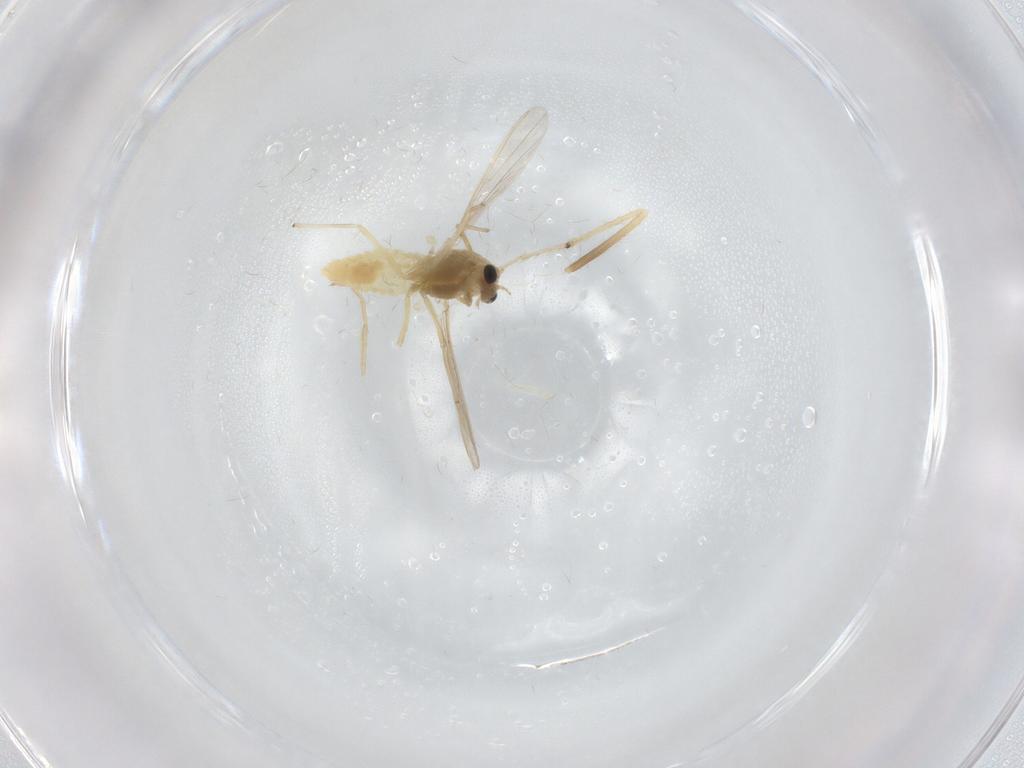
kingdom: Animalia
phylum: Arthropoda
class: Insecta
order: Diptera
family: Chironomidae
